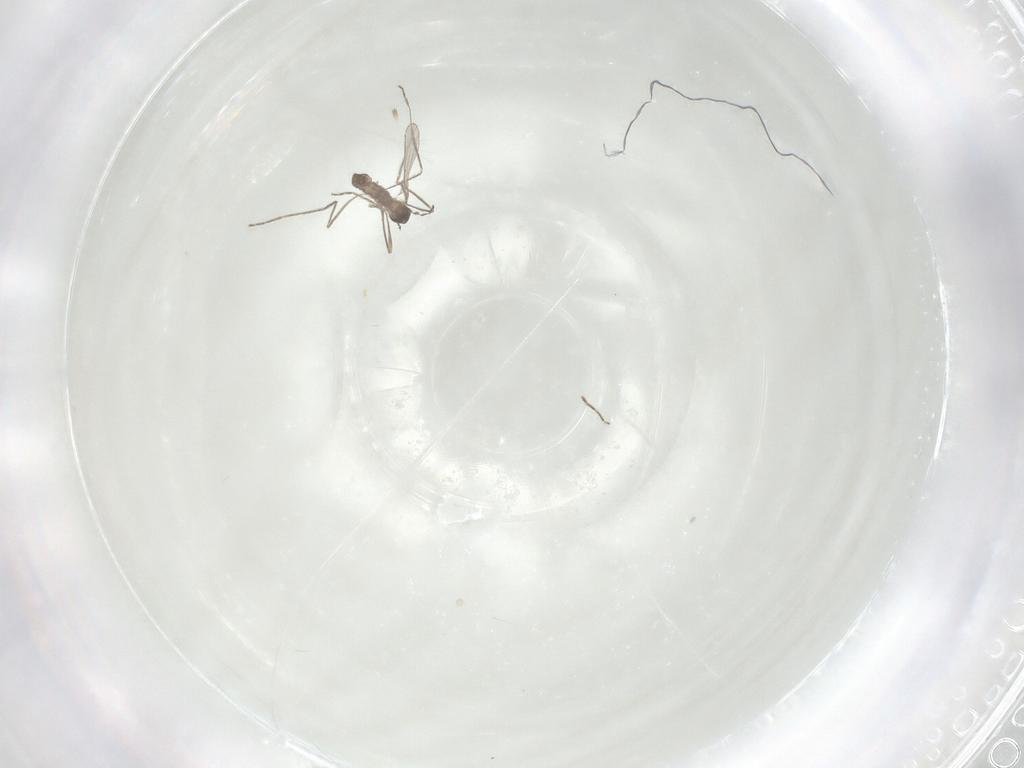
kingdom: Animalia
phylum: Arthropoda
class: Insecta
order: Diptera
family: Cecidomyiidae
